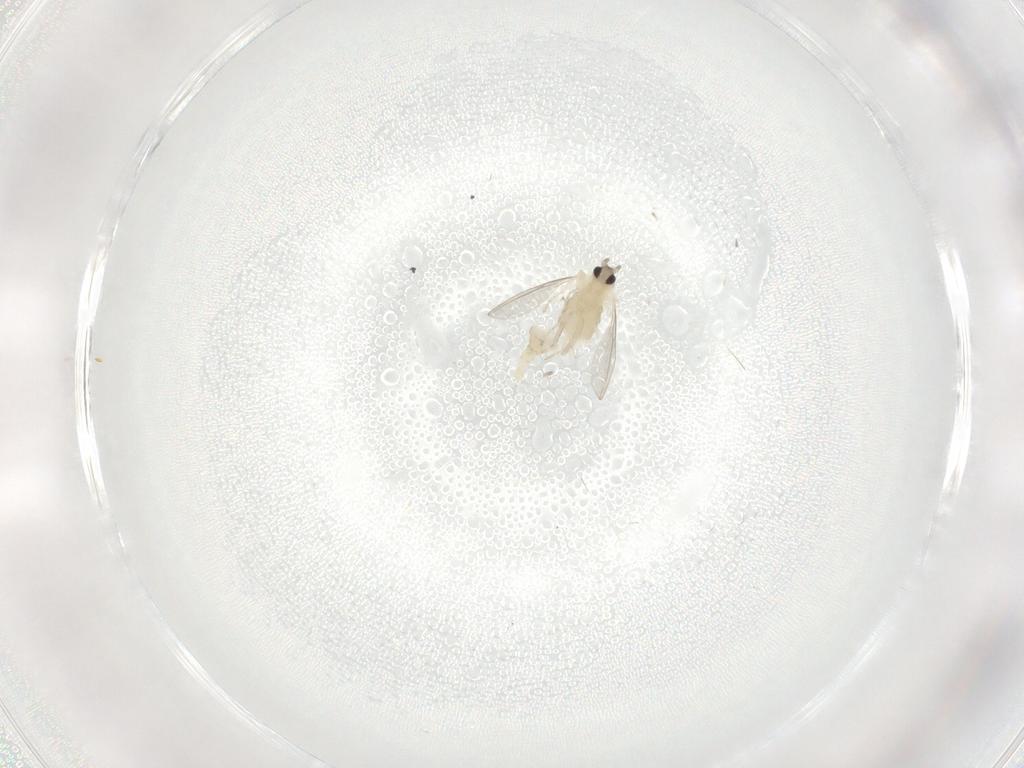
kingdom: Animalia
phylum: Arthropoda
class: Insecta
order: Diptera
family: Cecidomyiidae
